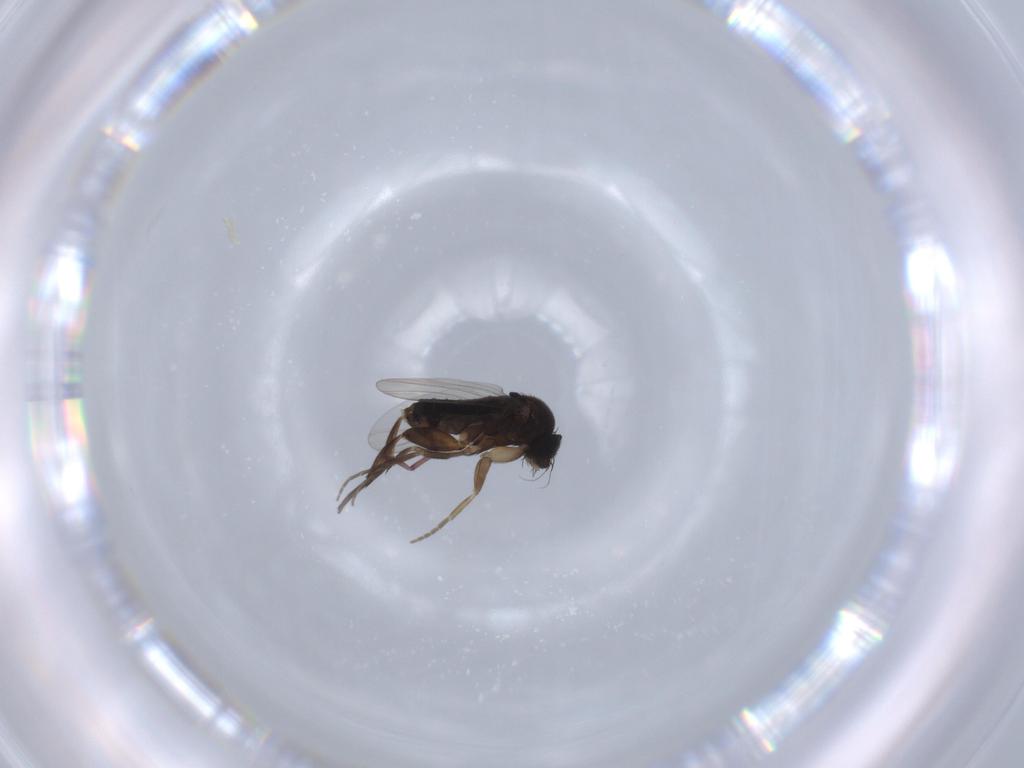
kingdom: Animalia
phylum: Arthropoda
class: Insecta
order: Diptera
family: Phoridae
